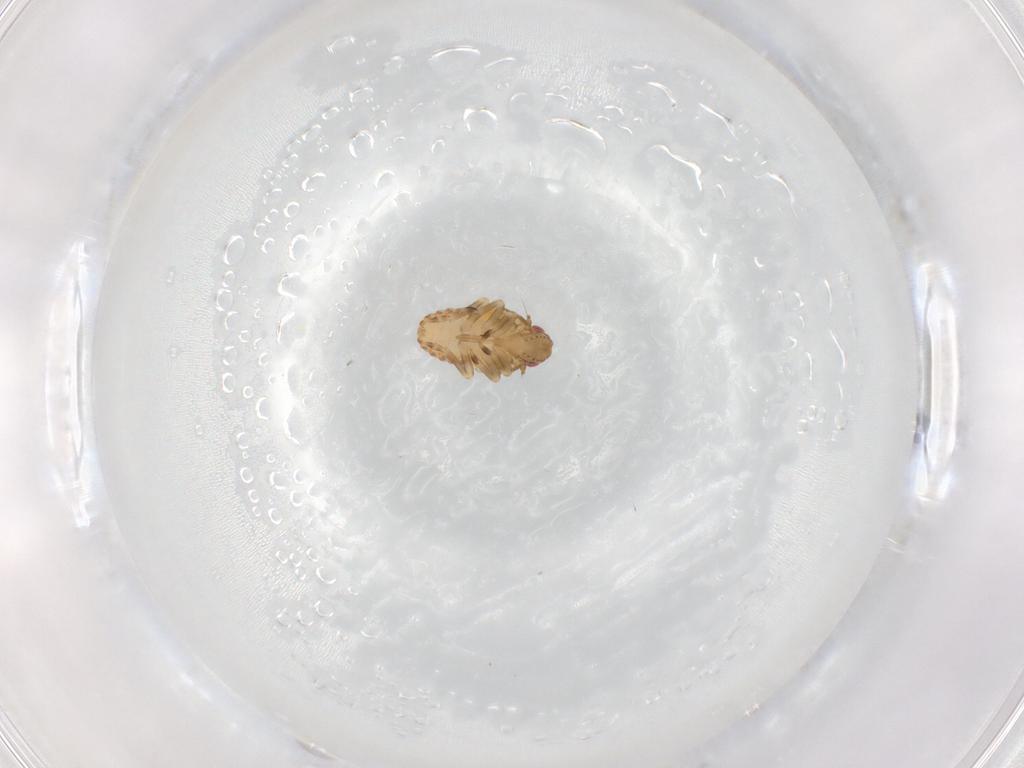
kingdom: Animalia
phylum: Arthropoda
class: Insecta
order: Hemiptera
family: Flatidae
